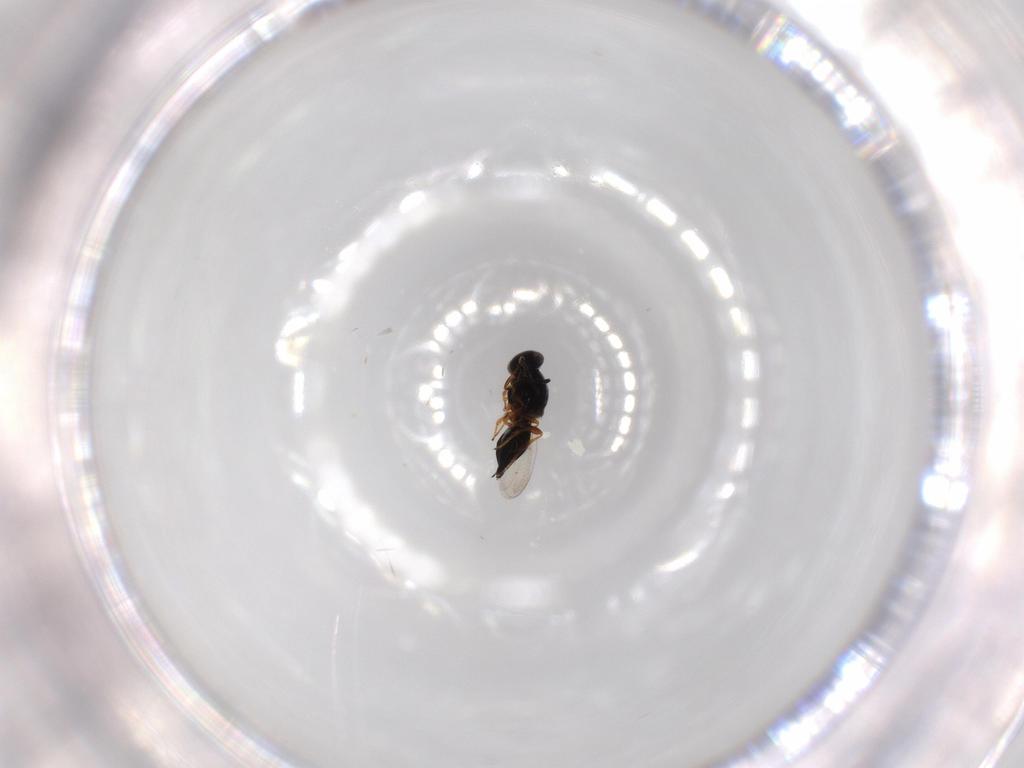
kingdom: Animalia
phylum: Arthropoda
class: Insecta
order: Hymenoptera
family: Platygastridae
